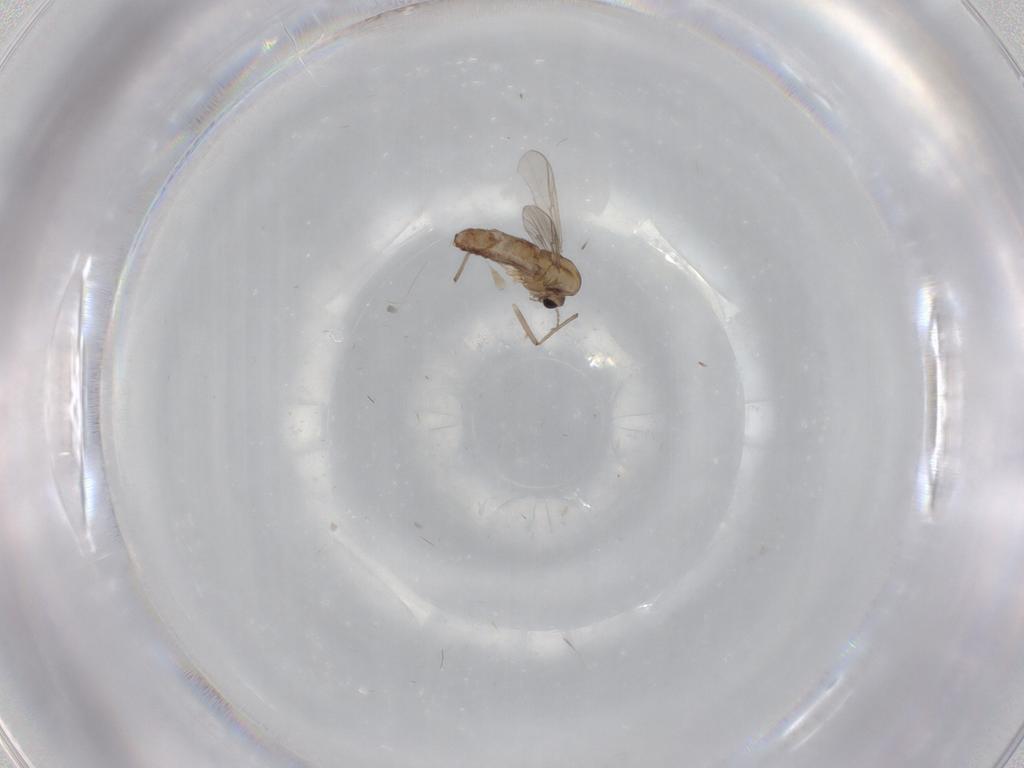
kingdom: Animalia
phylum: Arthropoda
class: Insecta
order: Diptera
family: Chironomidae
